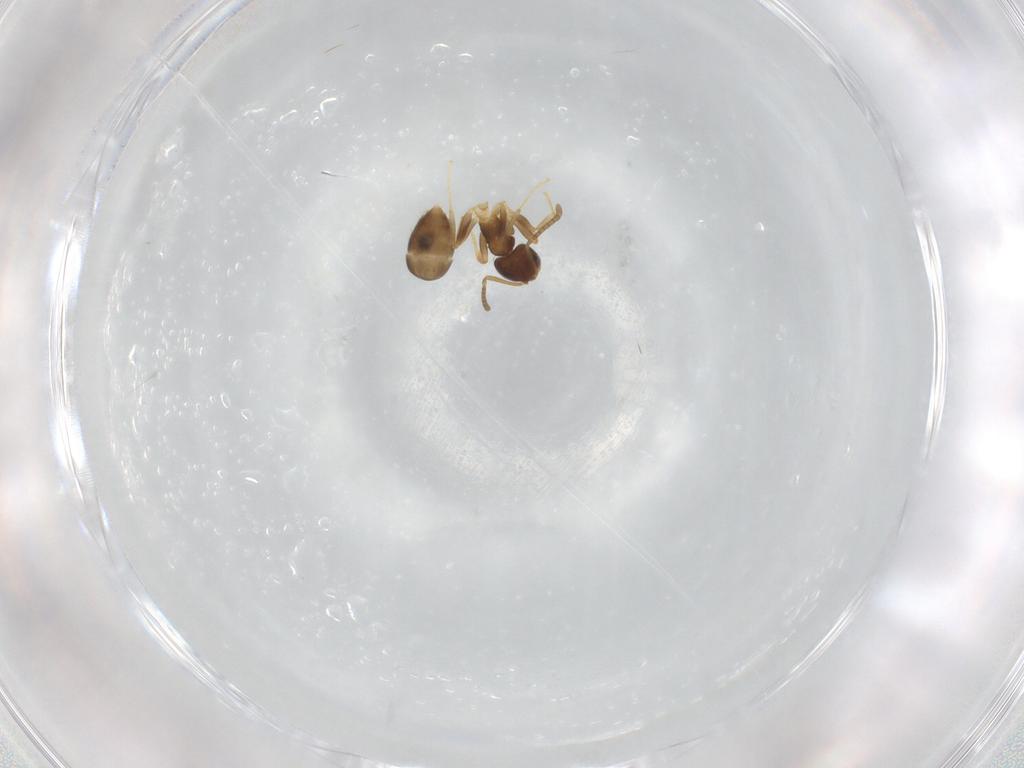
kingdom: Animalia
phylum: Arthropoda
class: Insecta
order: Hymenoptera
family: Formicidae
